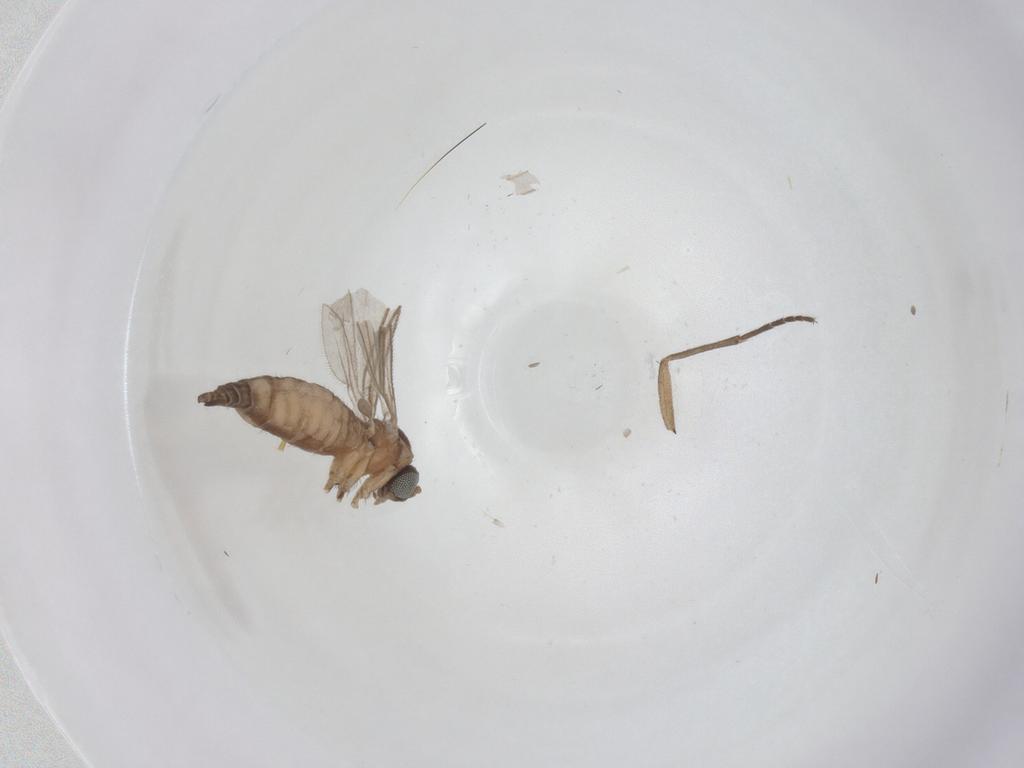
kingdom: Animalia
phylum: Arthropoda
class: Insecta
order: Diptera
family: Sciaridae
